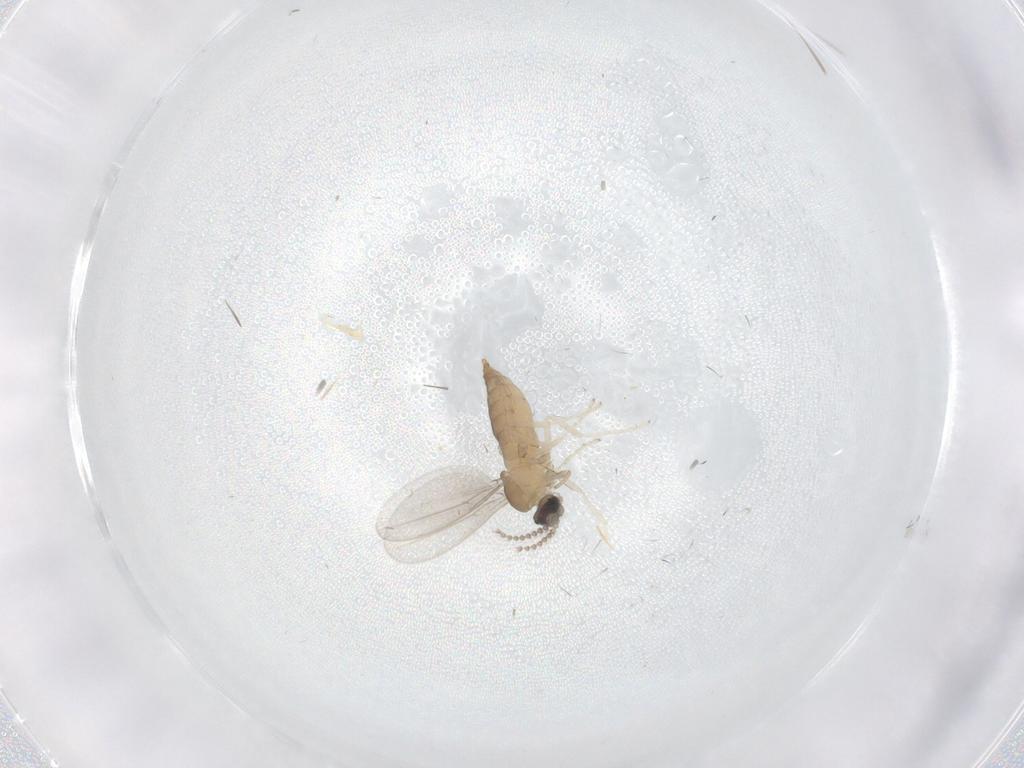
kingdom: Animalia
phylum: Arthropoda
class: Insecta
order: Diptera
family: Cecidomyiidae
